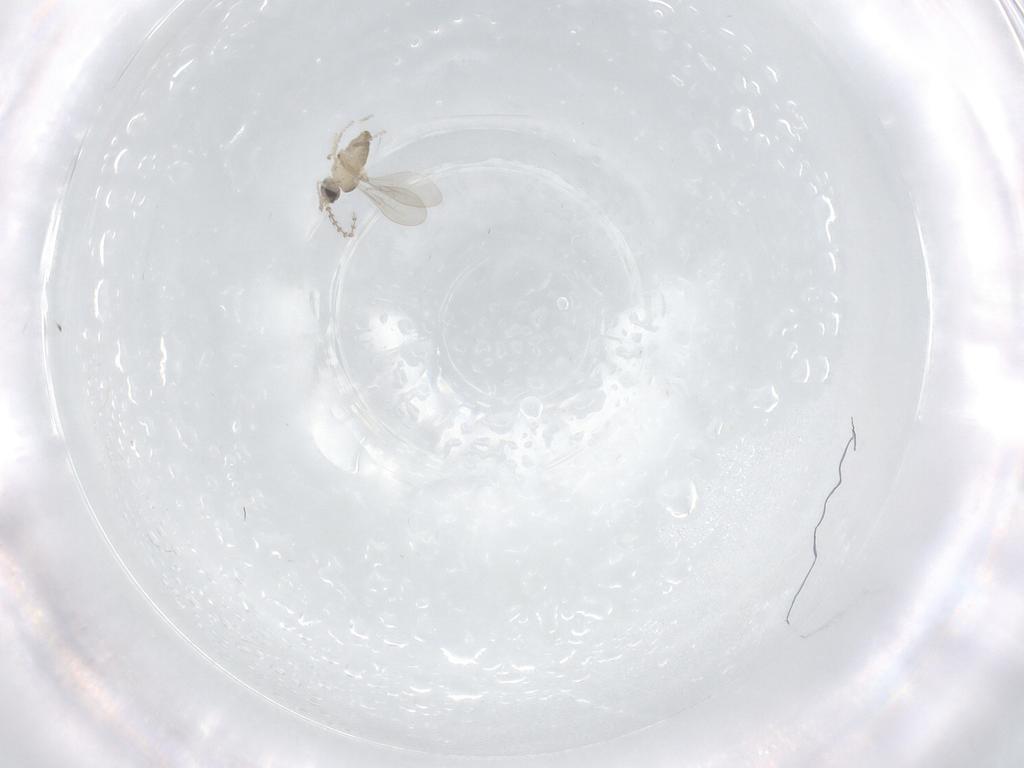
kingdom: Animalia
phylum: Arthropoda
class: Insecta
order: Diptera
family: Cecidomyiidae
